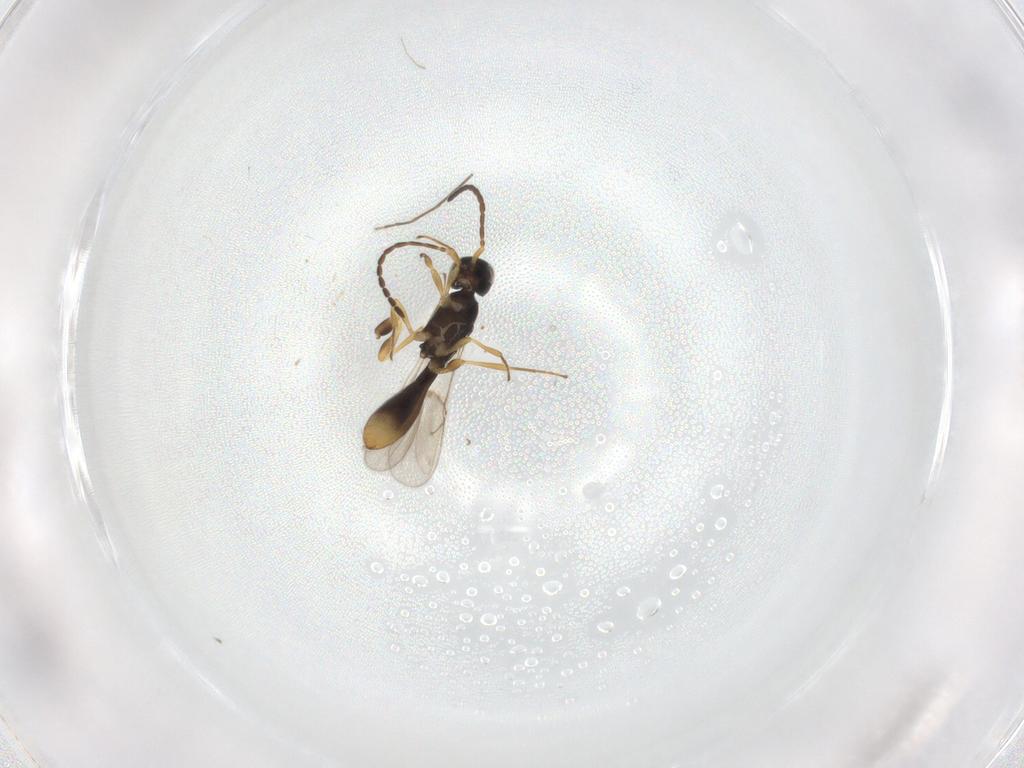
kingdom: Animalia
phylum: Arthropoda
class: Insecta
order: Hymenoptera
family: Scelionidae
